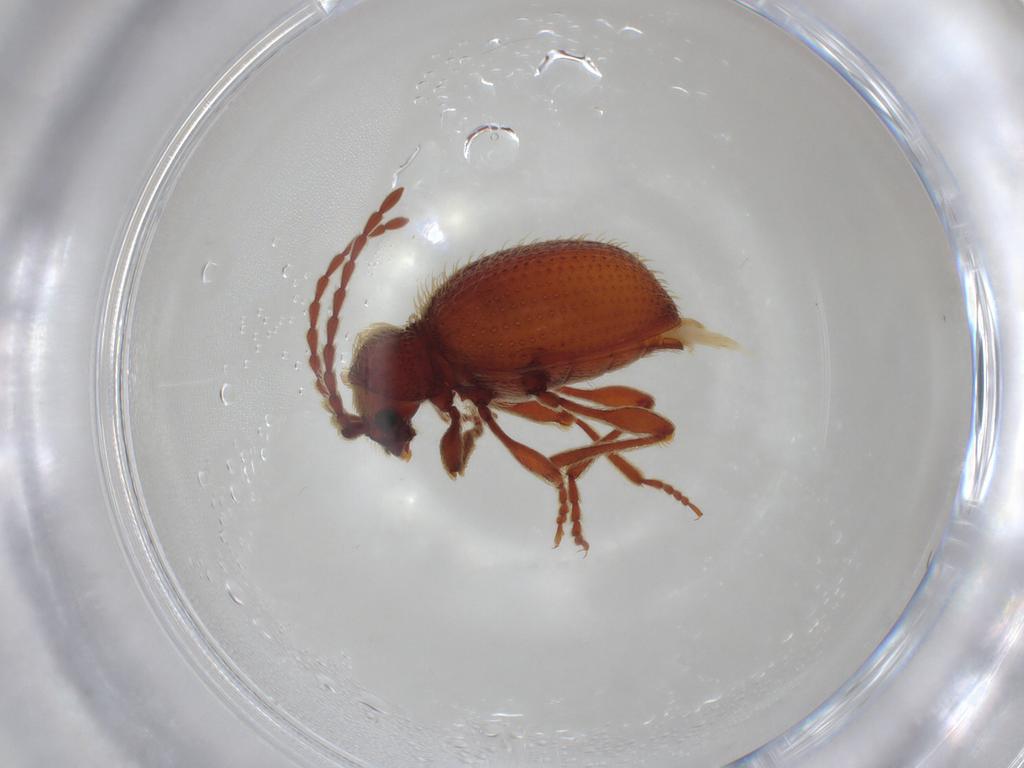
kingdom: Animalia
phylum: Arthropoda
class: Insecta
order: Coleoptera
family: Ptinidae
